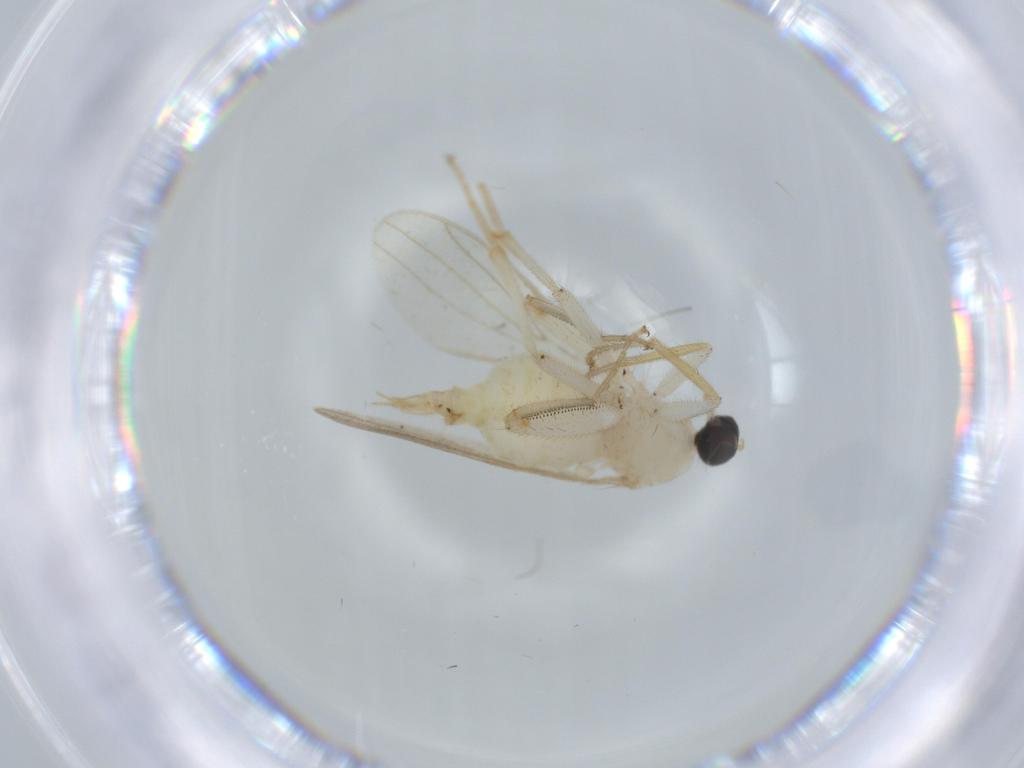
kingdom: Animalia
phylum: Arthropoda
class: Insecta
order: Diptera
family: Hybotidae
